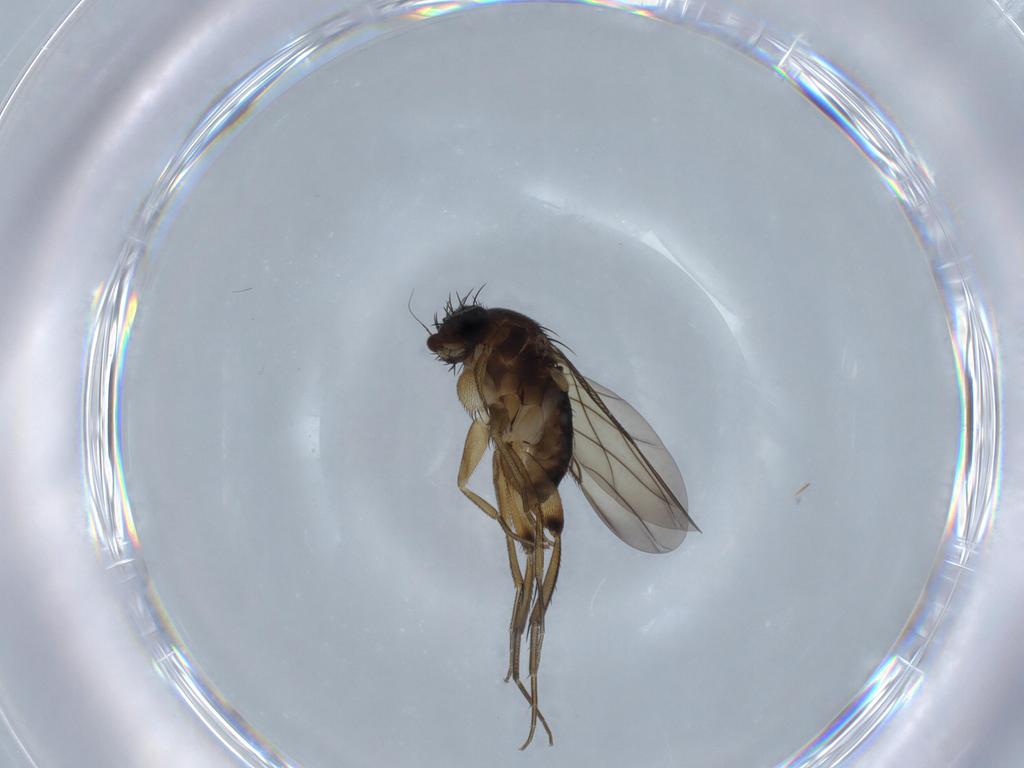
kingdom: Animalia
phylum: Arthropoda
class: Insecta
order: Diptera
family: Phoridae
